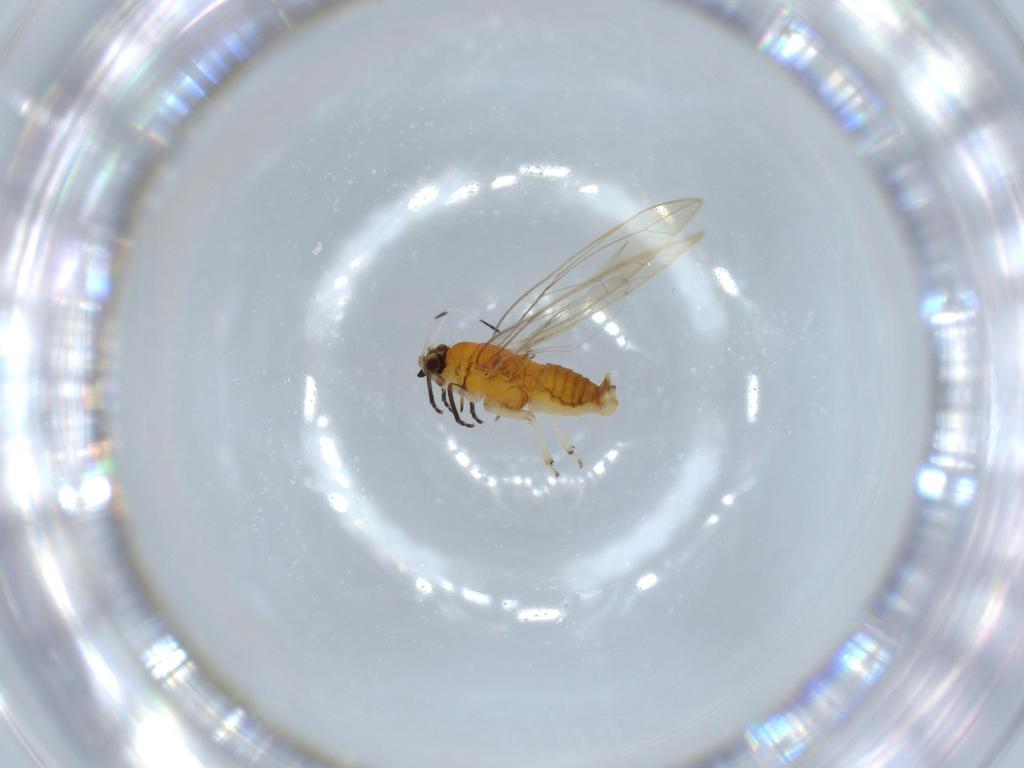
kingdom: Animalia
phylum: Arthropoda
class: Insecta
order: Hemiptera
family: Triozidae
